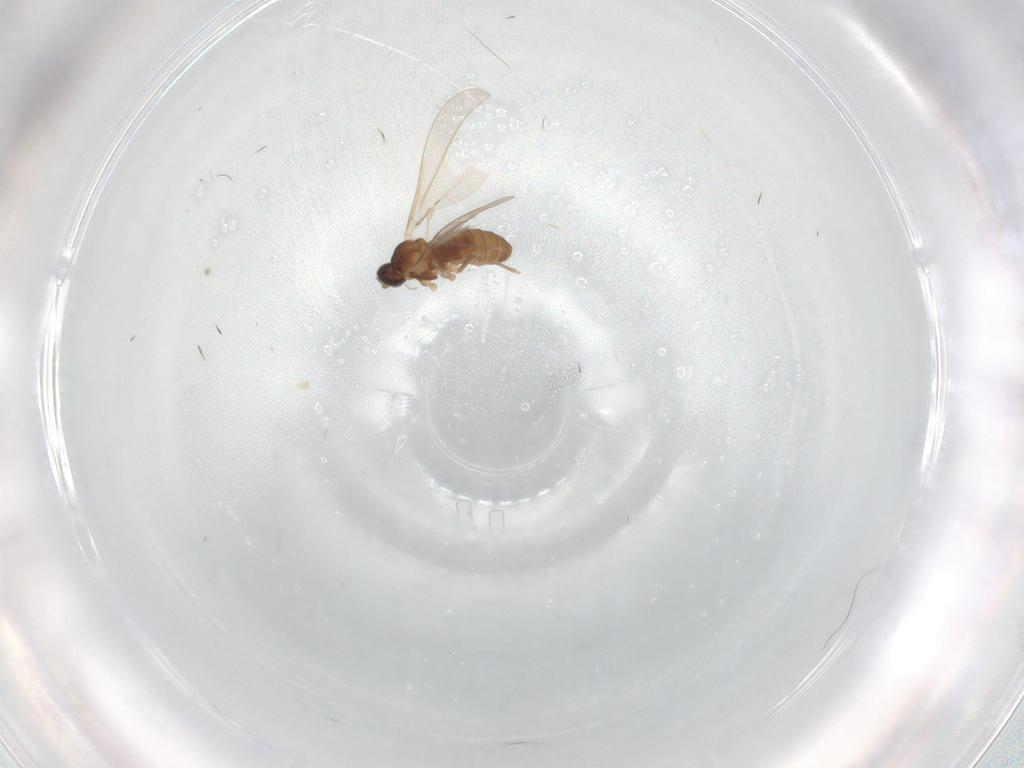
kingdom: Animalia
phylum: Arthropoda
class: Insecta
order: Diptera
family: Cecidomyiidae
